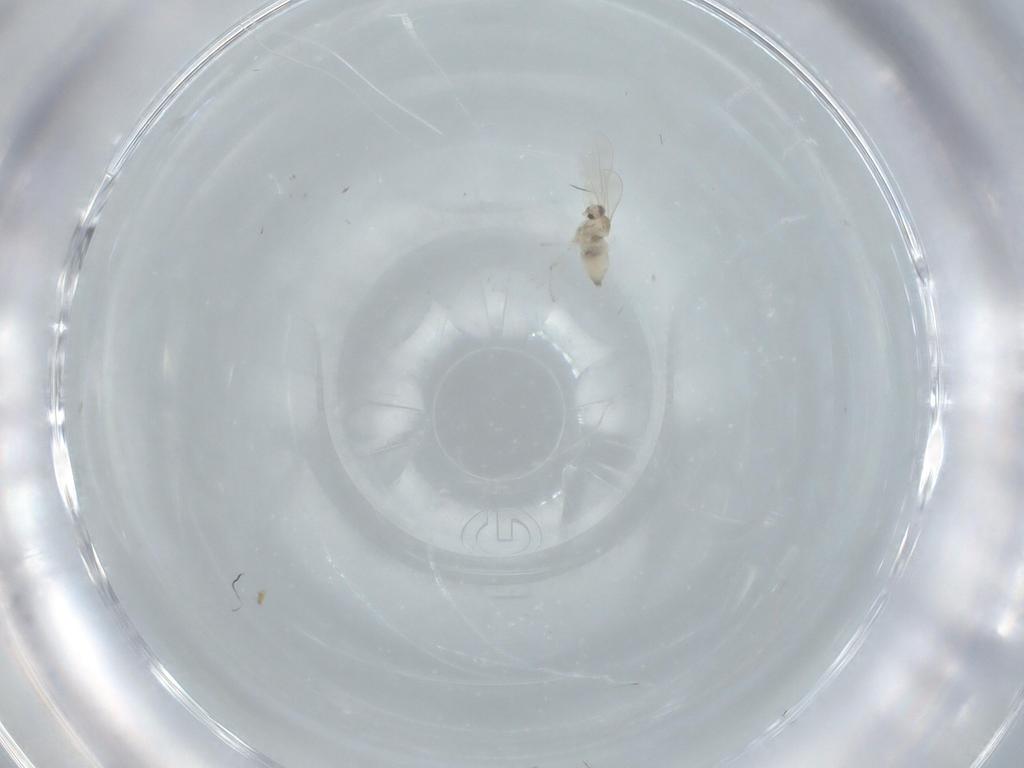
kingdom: Animalia
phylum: Arthropoda
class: Insecta
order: Diptera
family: Cecidomyiidae
